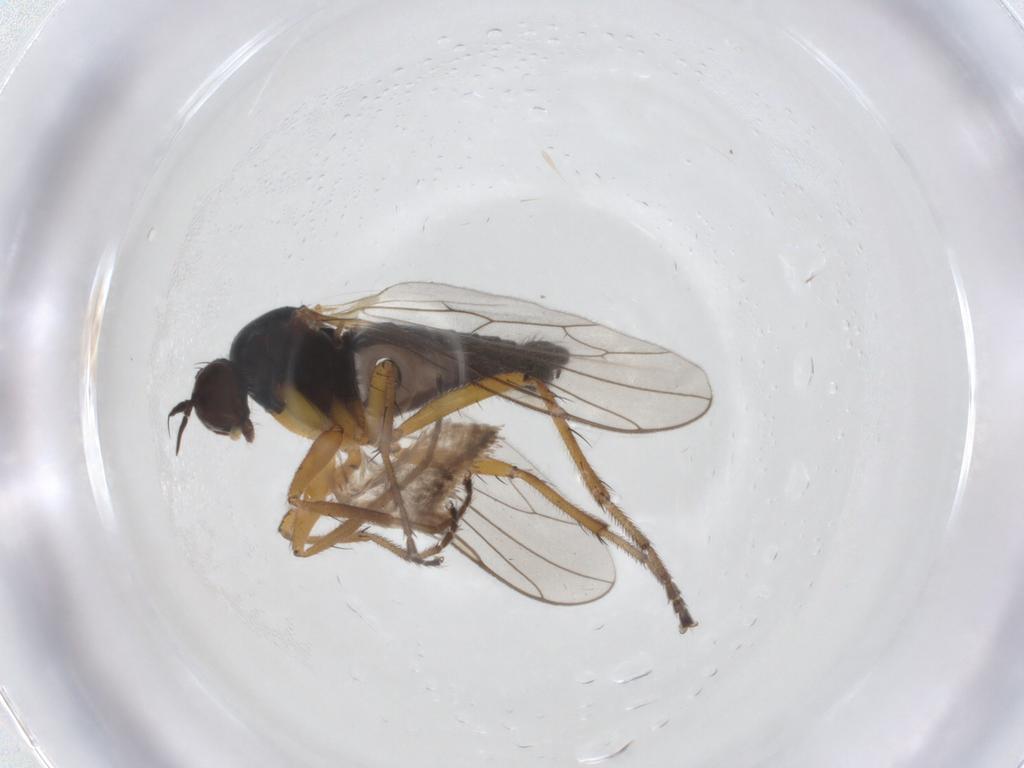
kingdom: Animalia
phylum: Arthropoda
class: Insecta
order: Diptera
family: Hybotidae
